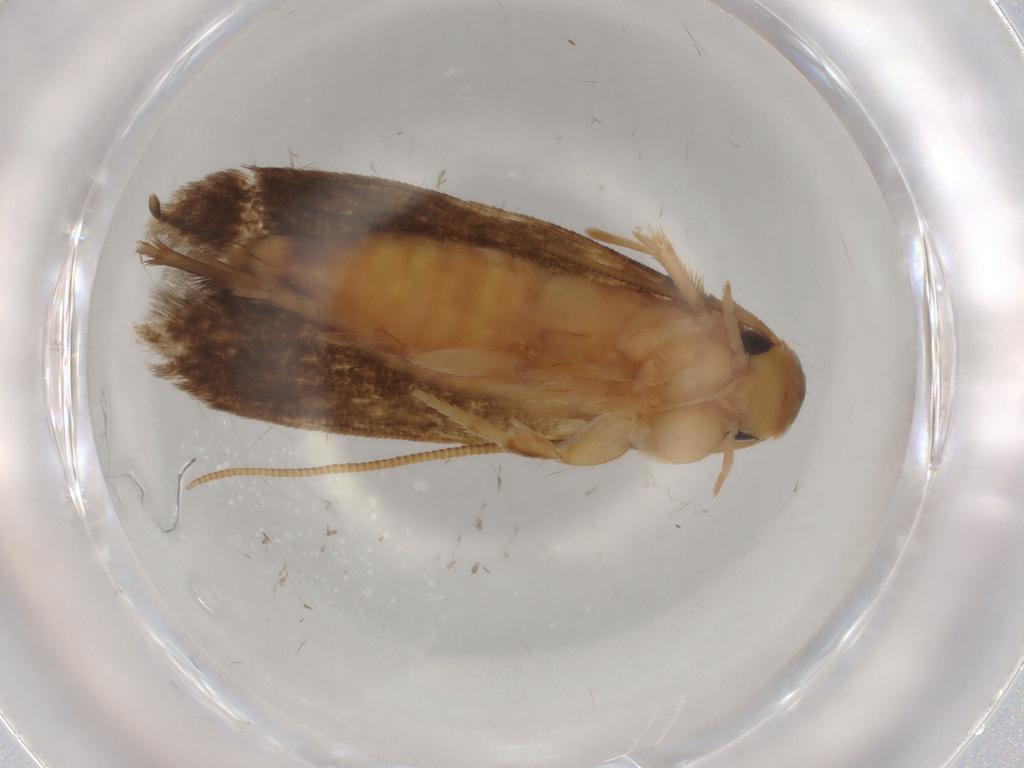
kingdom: Animalia
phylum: Arthropoda
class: Insecta
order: Lepidoptera
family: Tineidae
